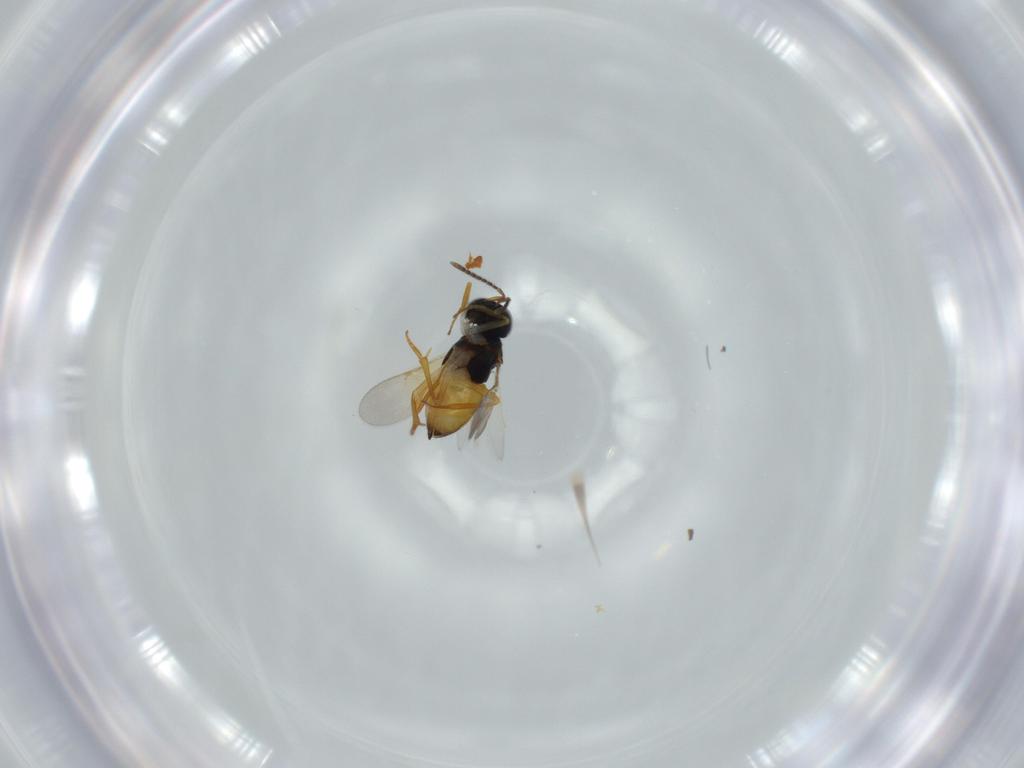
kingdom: Animalia
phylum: Arthropoda
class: Insecta
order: Hymenoptera
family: Encyrtidae
